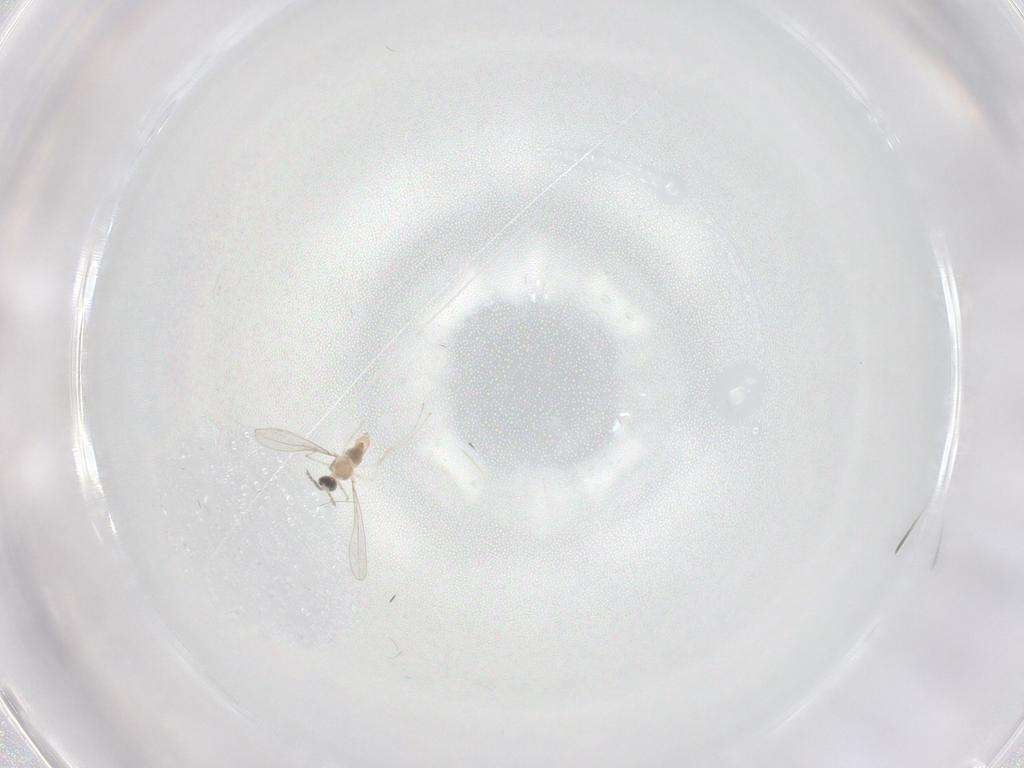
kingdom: Animalia
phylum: Arthropoda
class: Insecta
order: Diptera
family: Cecidomyiidae
